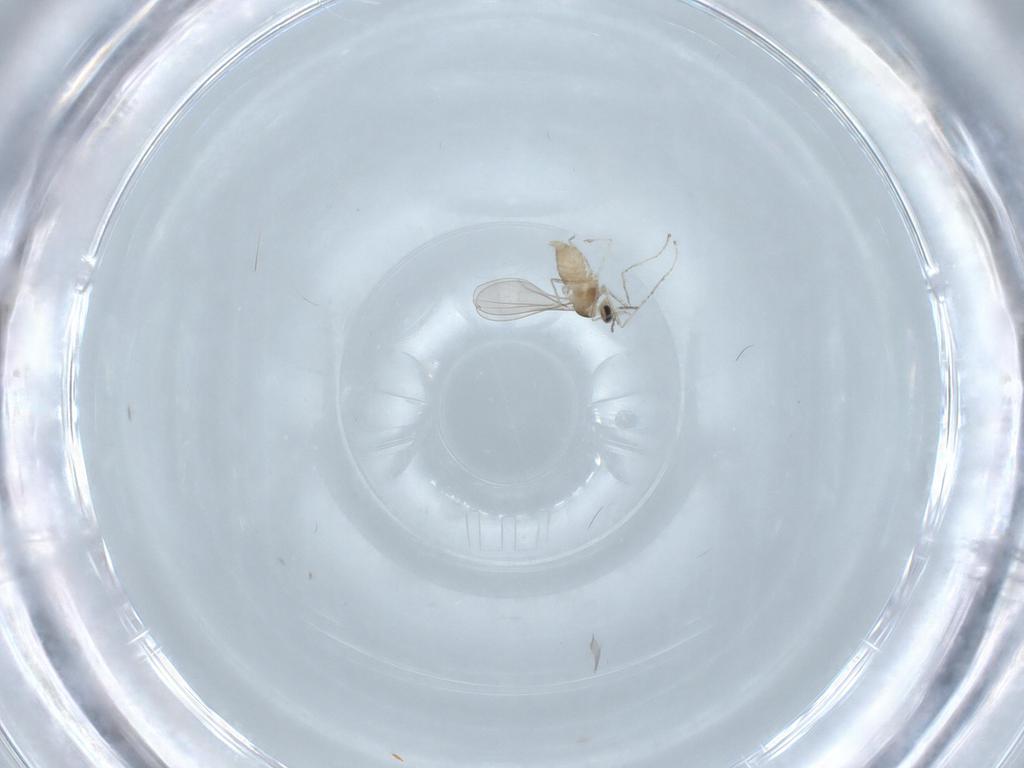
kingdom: Animalia
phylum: Arthropoda
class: Insecta
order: Diptera
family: Cecidomyiidae
